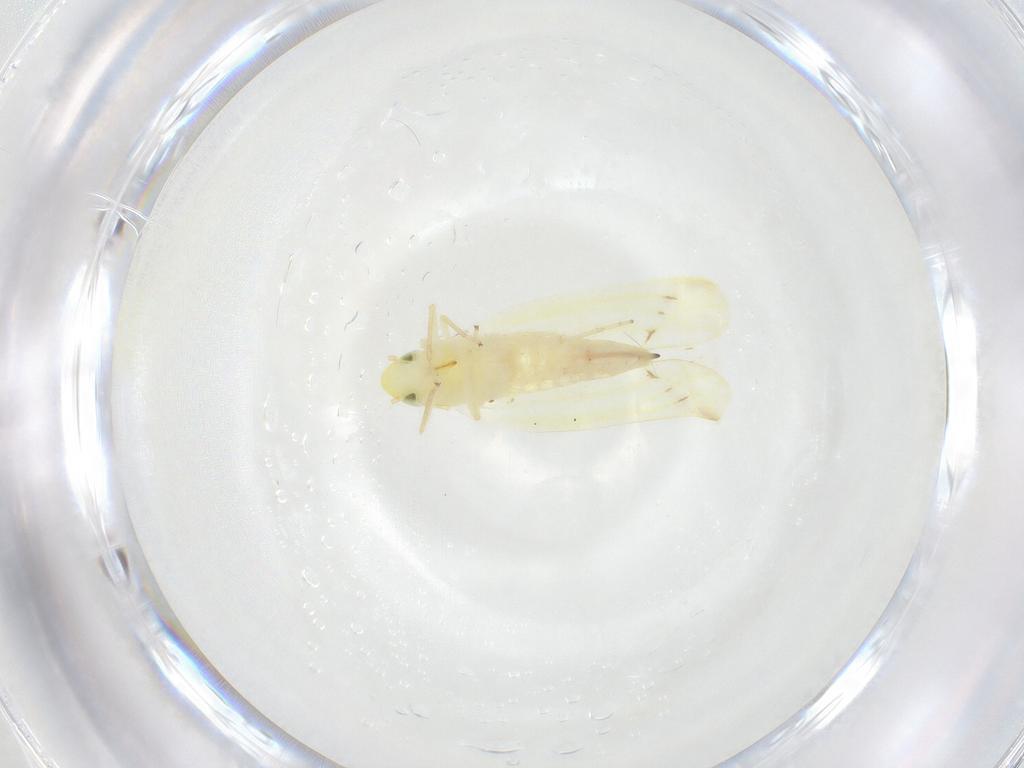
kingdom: Animalia
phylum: Arthropoda
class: Insecta
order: Hemiptera
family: Cicadellidae
